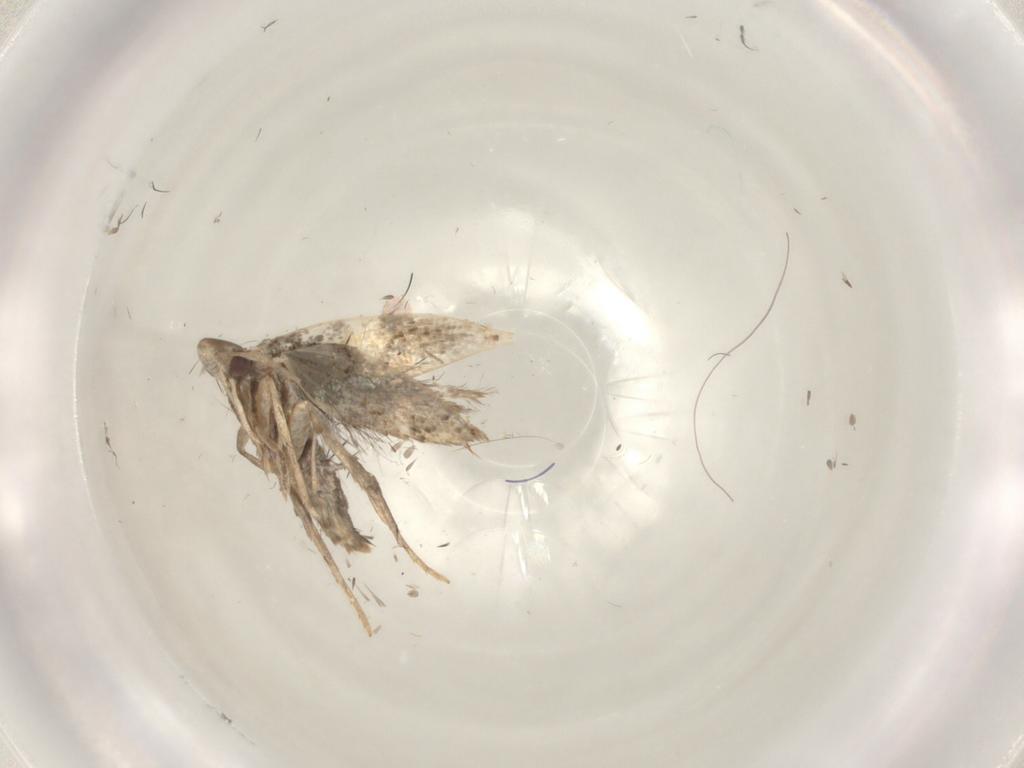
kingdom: Animalia
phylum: Arthropoda
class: Insecta
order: Lepidoptera
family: Gelechiidae
